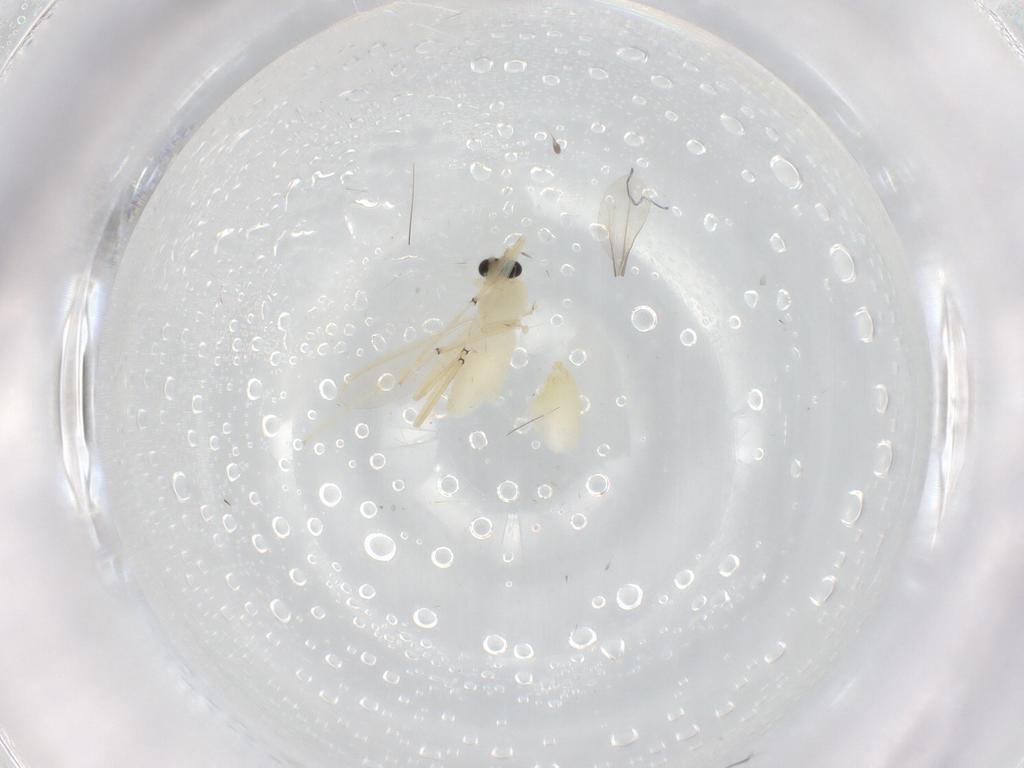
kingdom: Animalia
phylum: Arthropoda
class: Insecta
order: Diptera
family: Chironomidae
